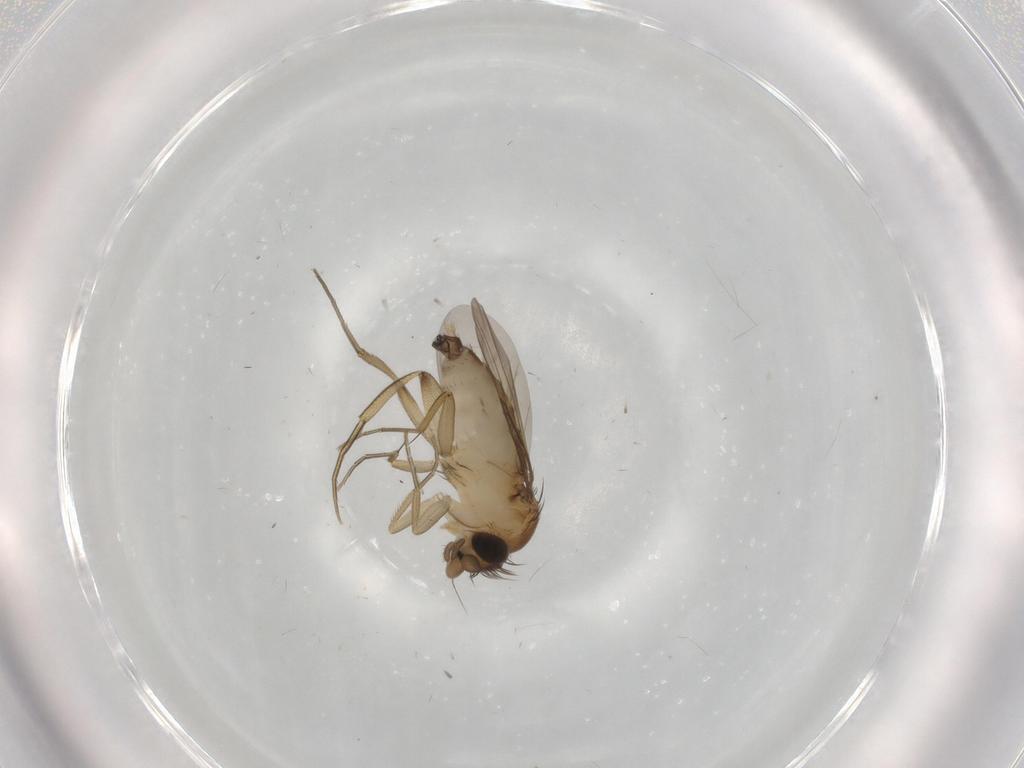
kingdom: Animalia
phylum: Arthropoda
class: Insecta
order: Diptera
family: Phoridae
